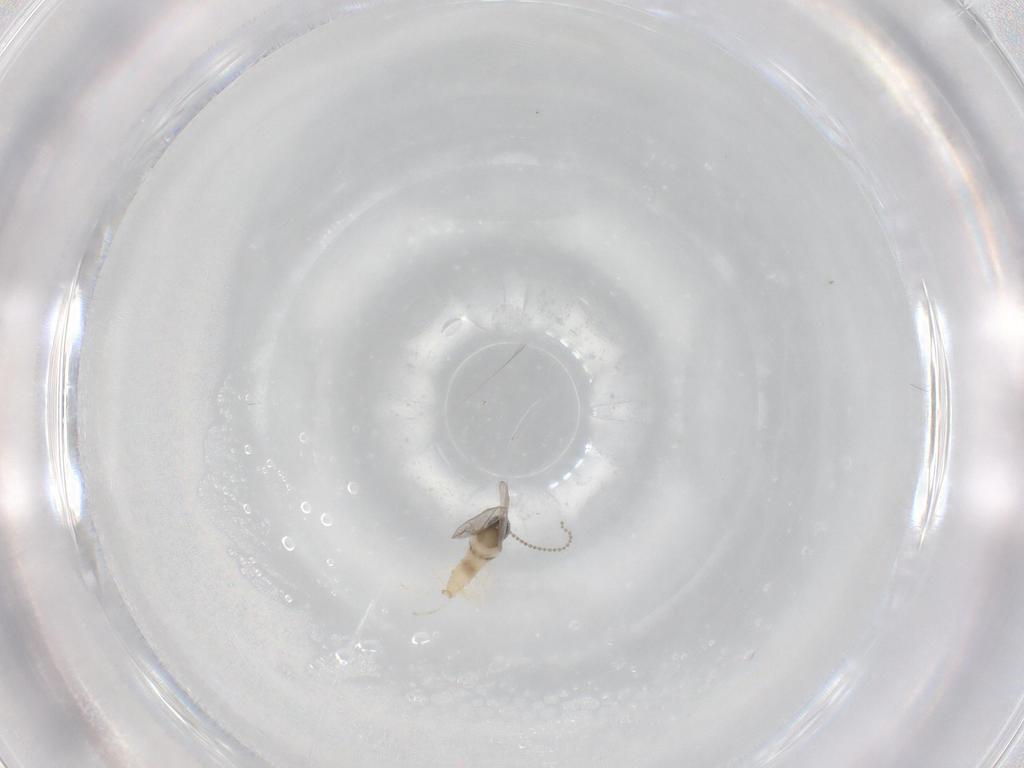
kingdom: Animalia
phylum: Arthropoda
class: Insecta
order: Diptera
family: Cecidomyiidae
